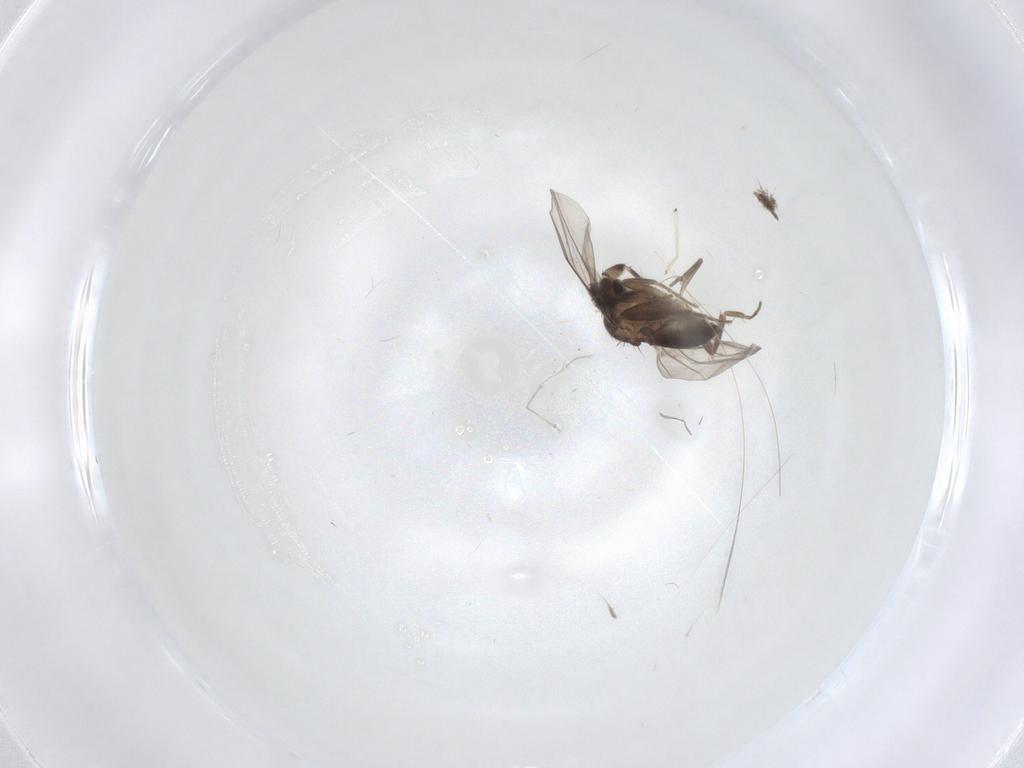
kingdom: Animalia
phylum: Arthropoda
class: Insecta
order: Diptera
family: Phoridae
